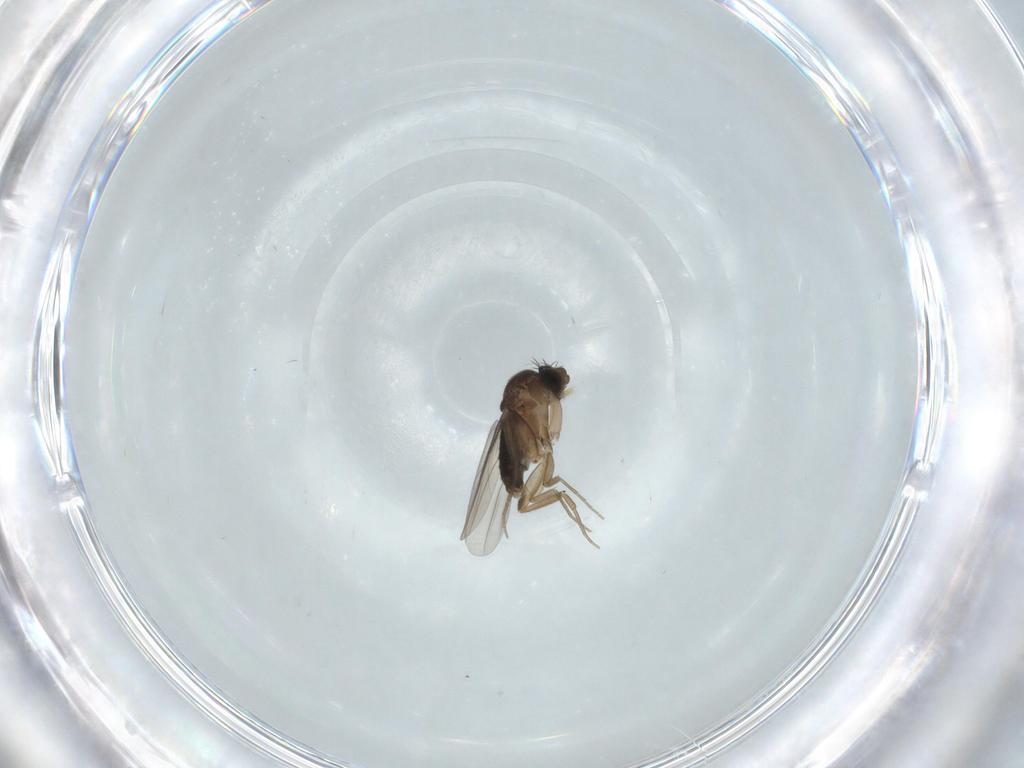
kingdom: Animalia
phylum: Arthropoda
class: Insecta
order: Diptera
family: Phoridae
